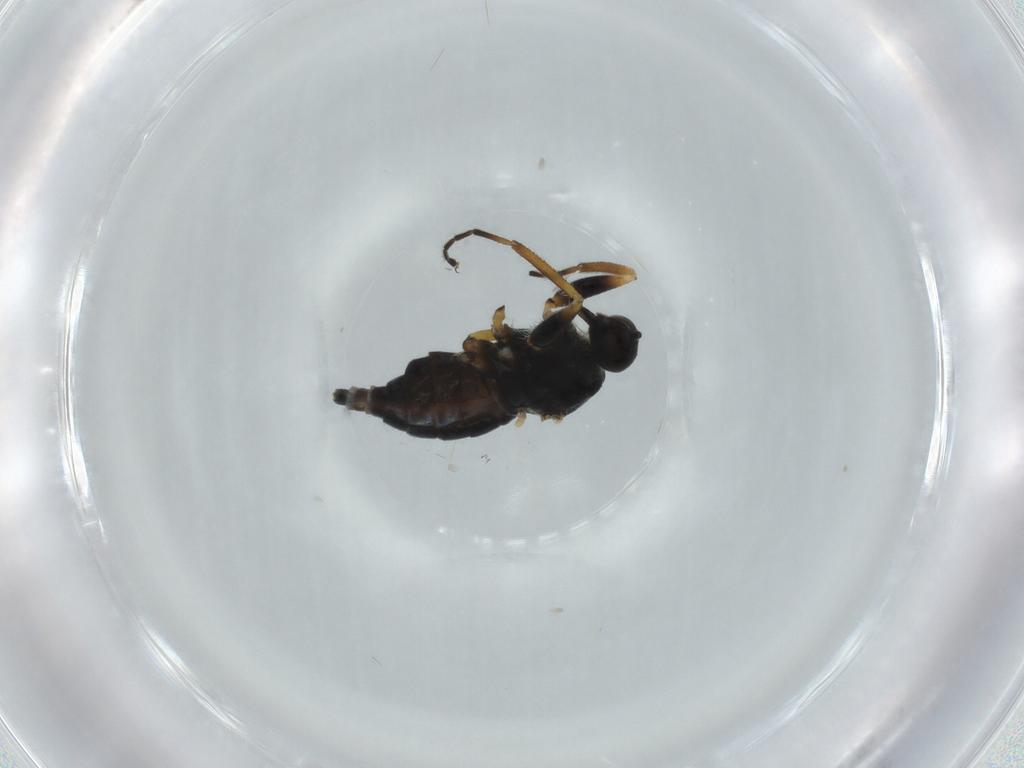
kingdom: Animalia
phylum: Arthropoda
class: Insecta
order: Diptera
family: Hybotidae
